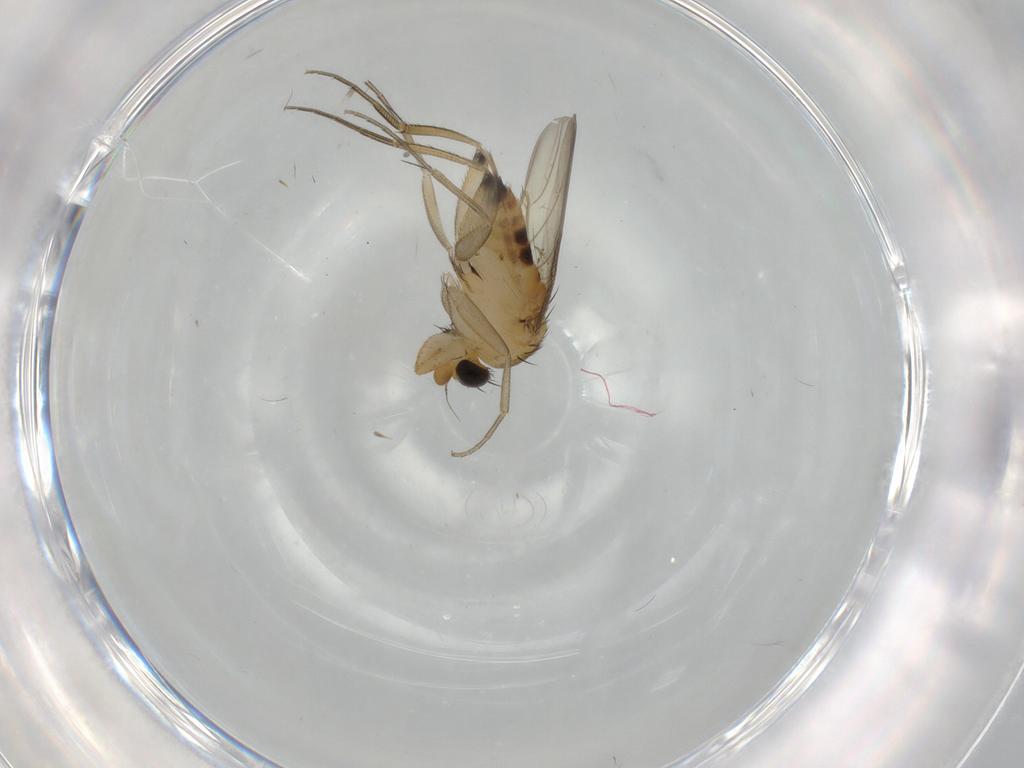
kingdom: Animalia
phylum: Arthropoda
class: Insecta
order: Diptera
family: Phoridae
